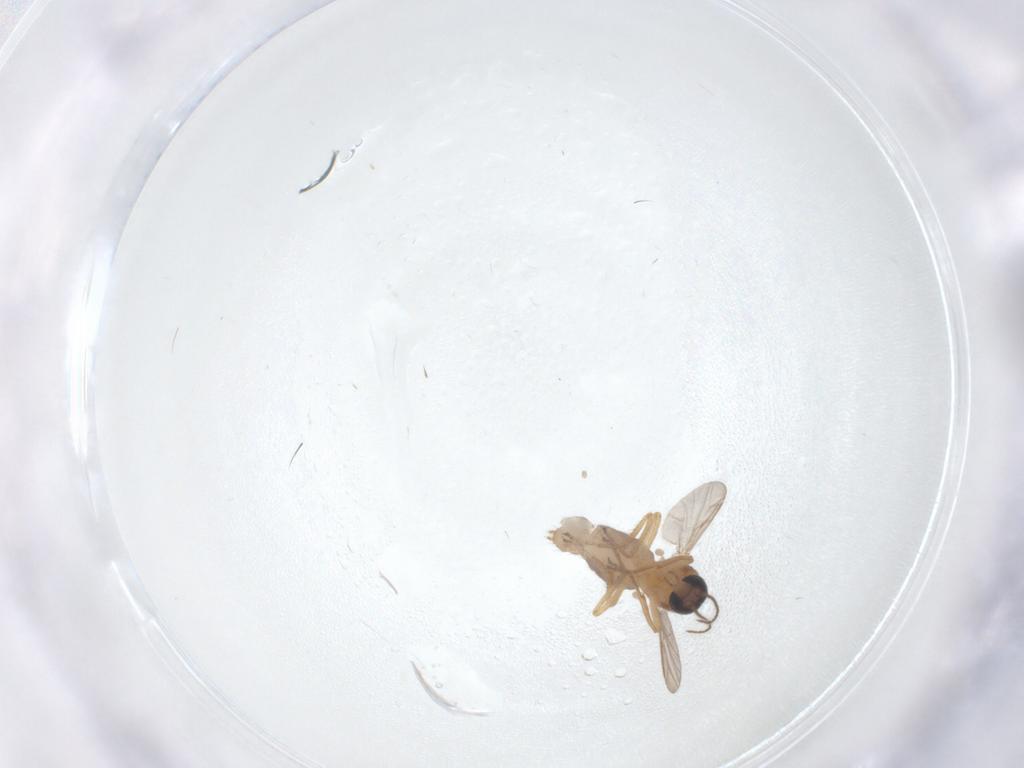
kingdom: Animalia
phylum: Arthropoda
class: Insecta
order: Diptera
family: Ceratopogonidae
